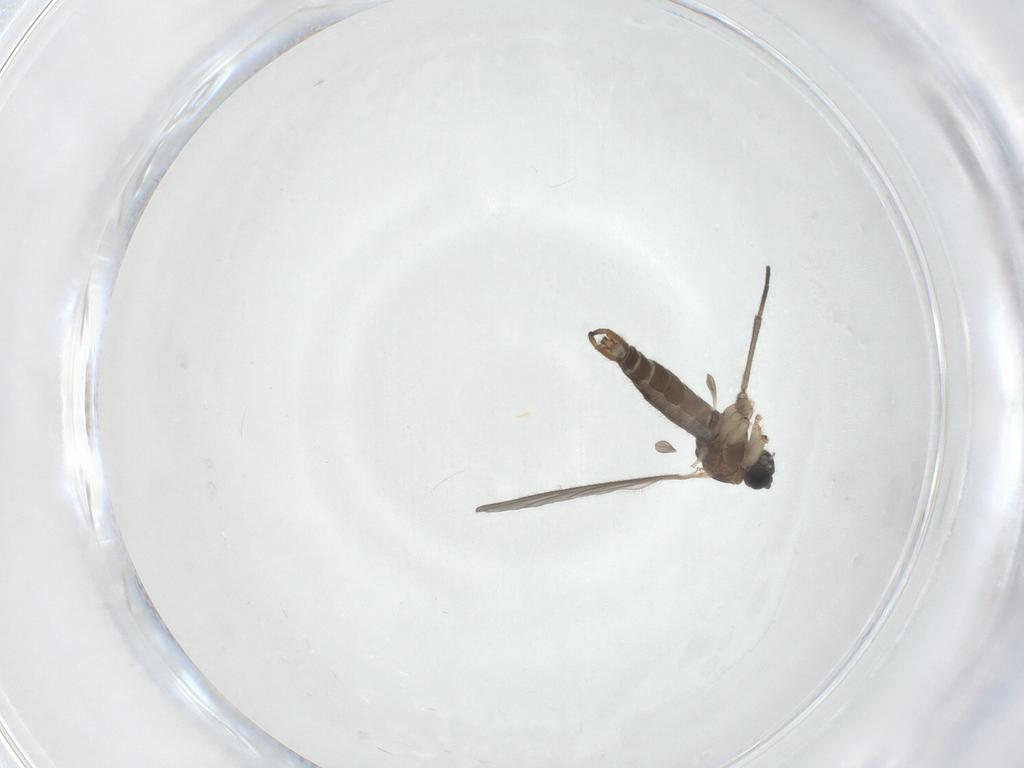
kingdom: Animalia
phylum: Arthropoda
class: Insecta
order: Diptera
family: Sciaridae
